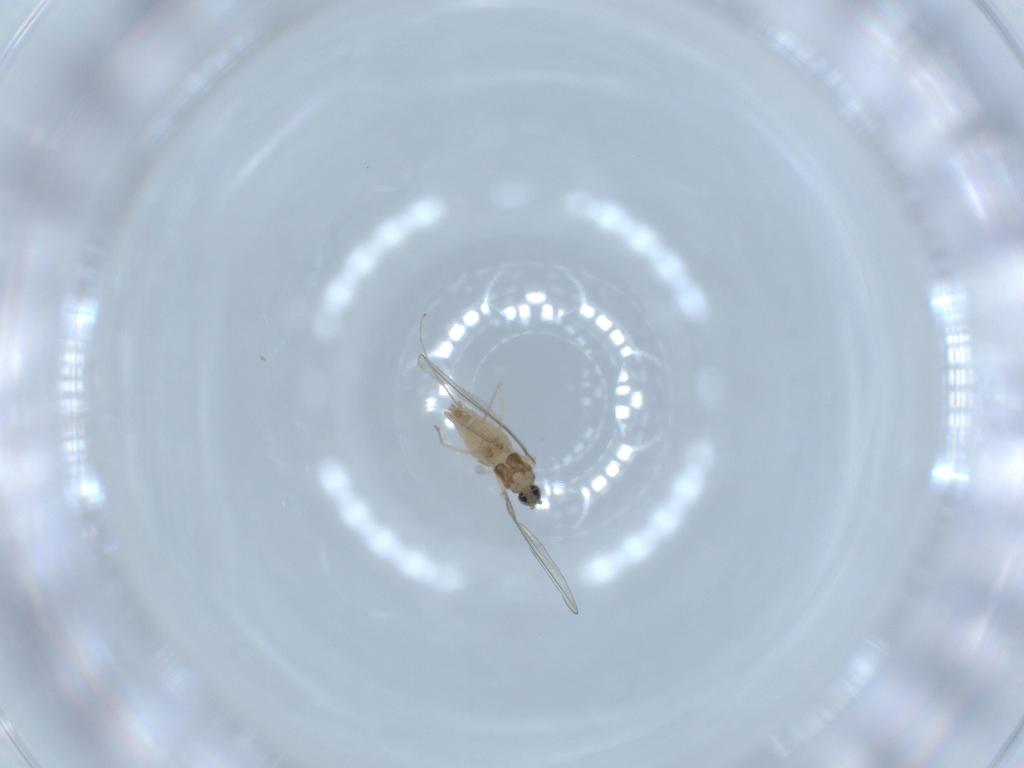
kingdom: Animalia
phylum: Arthropoda
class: Insecta
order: Diptera
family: Cecidomyiidae
